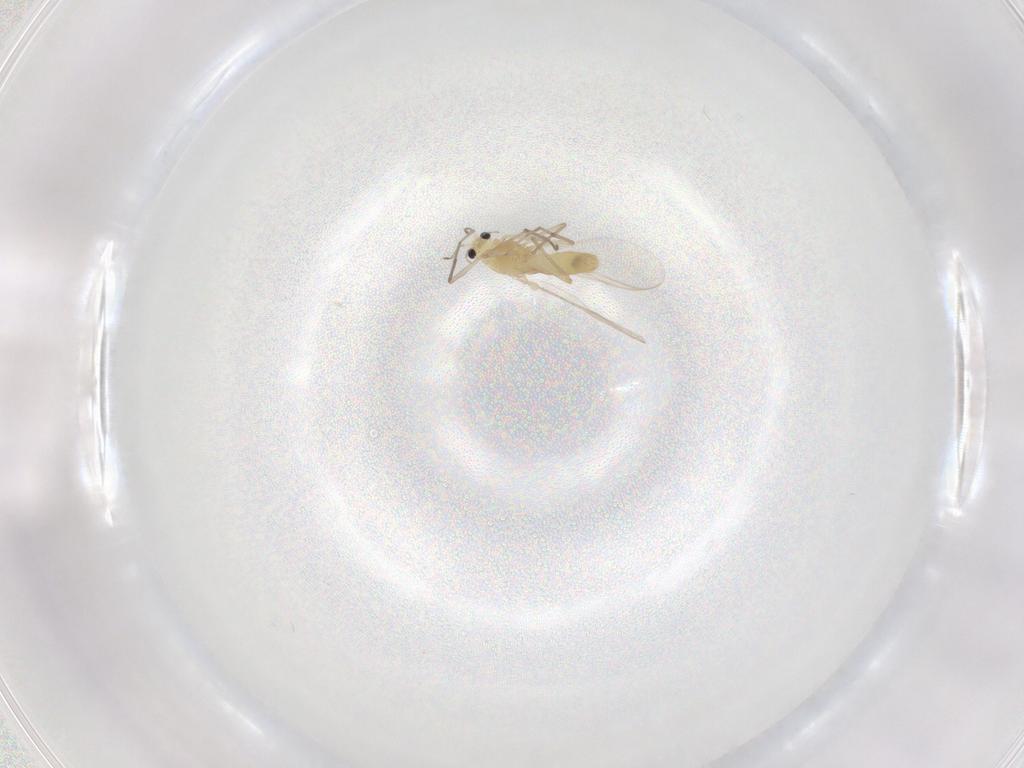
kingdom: Animalia
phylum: Arthropoda
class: Insecta
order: Diptera
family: Chironomidae
